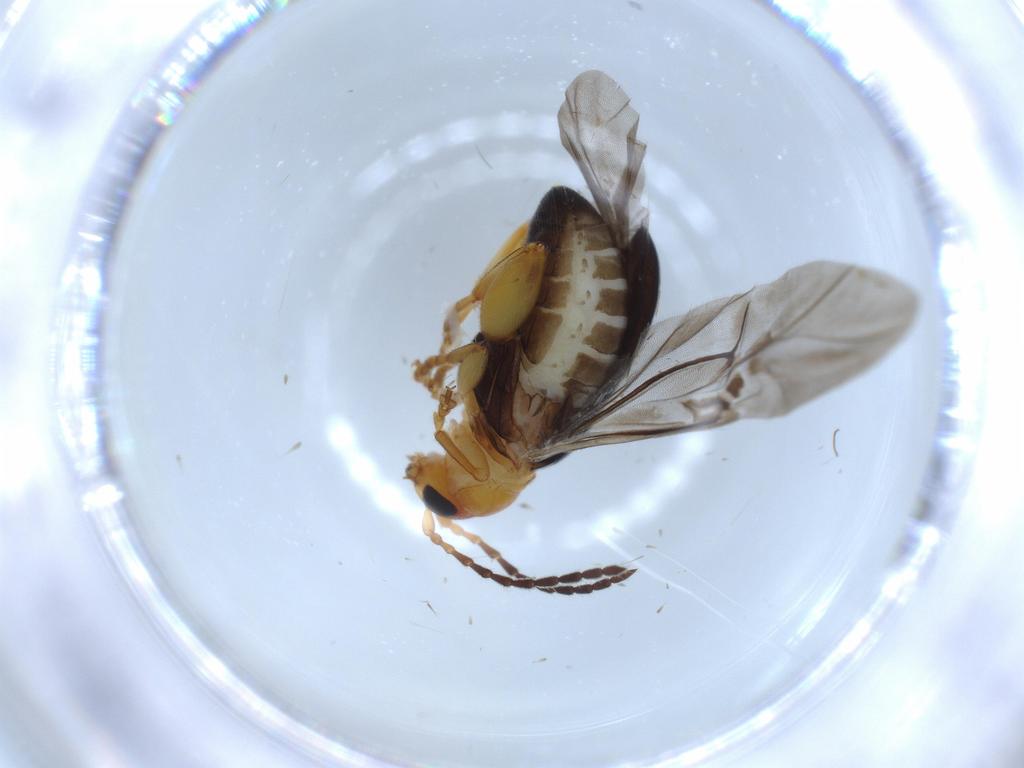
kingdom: Animalia
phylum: Arthropoda
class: Insecta
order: Coleoptera
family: Chrysomelidae
